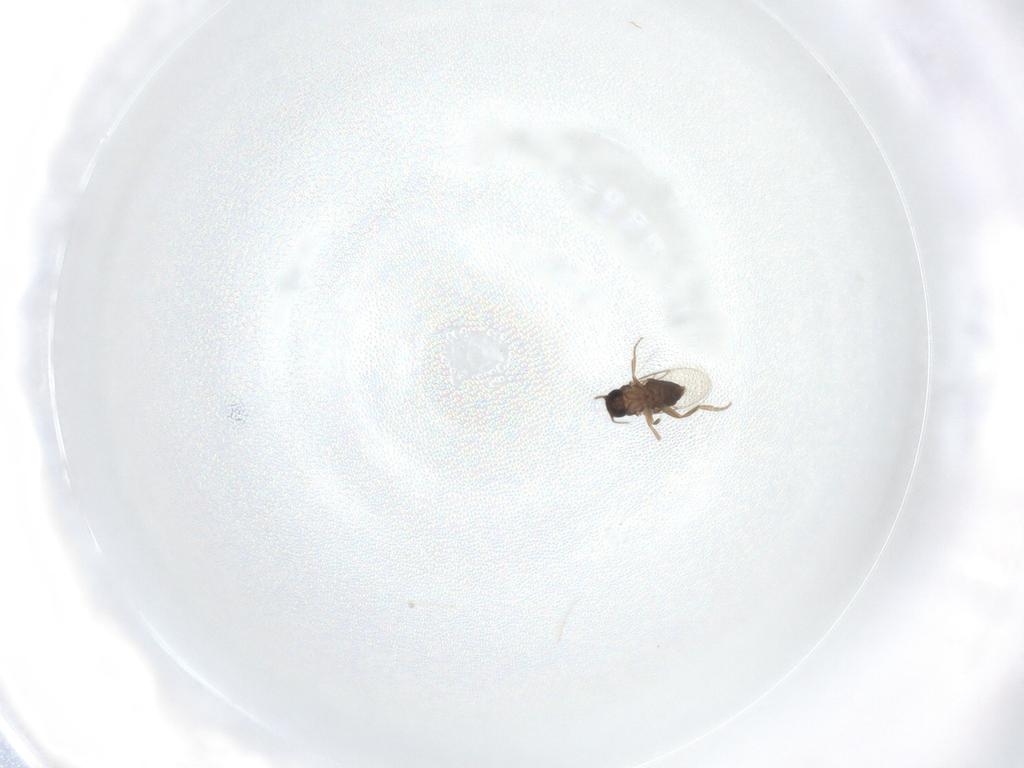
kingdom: Animalia
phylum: Arthropoda
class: Insecta
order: Diptera
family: Phoridae
